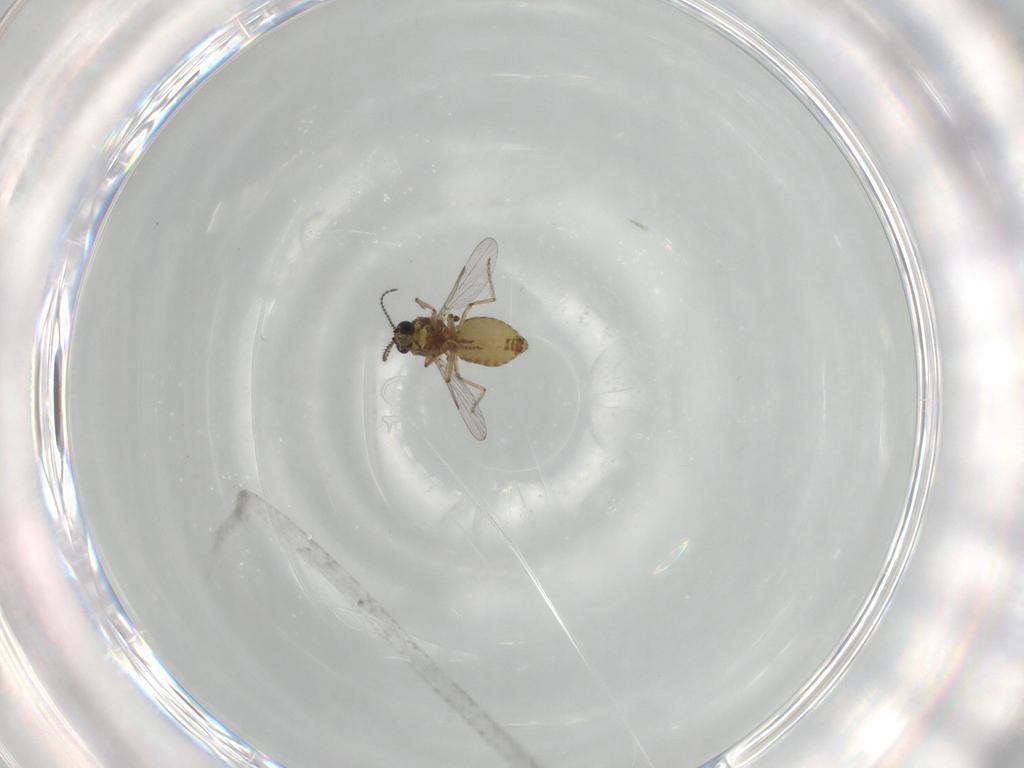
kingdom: Animalia
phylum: Arthropoda
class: Insecta
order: Diptera
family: Ceratopogonidae
